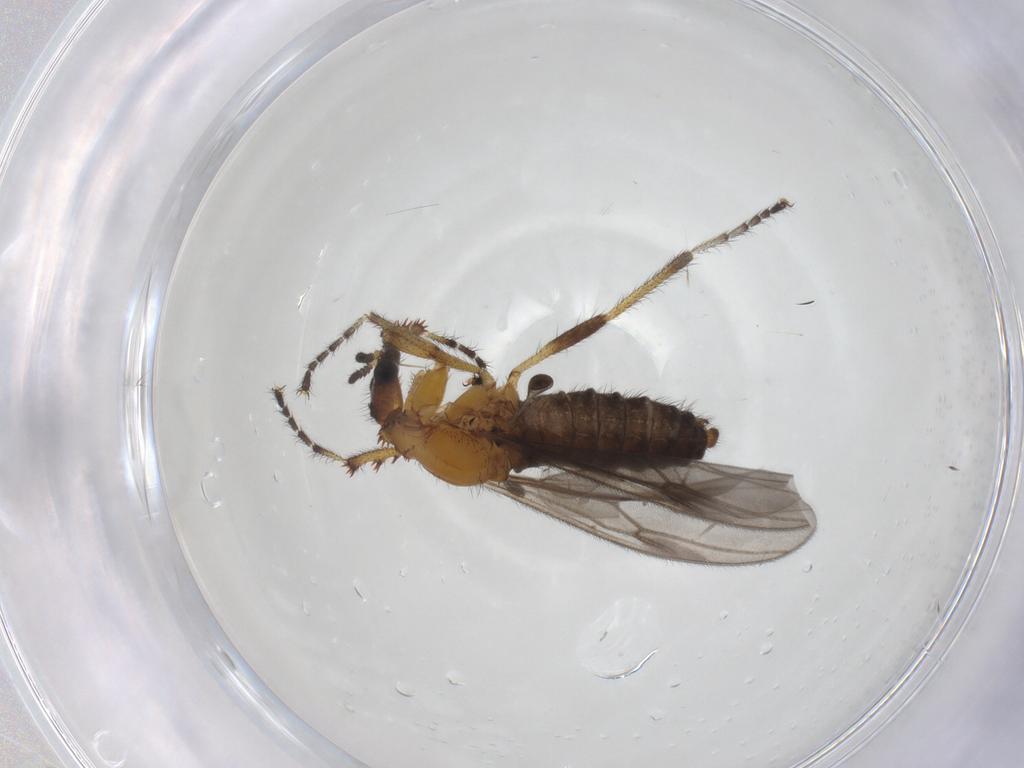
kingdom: Animalia
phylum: Arthropoda
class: Insecta
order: Diptera
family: Bibionidae
